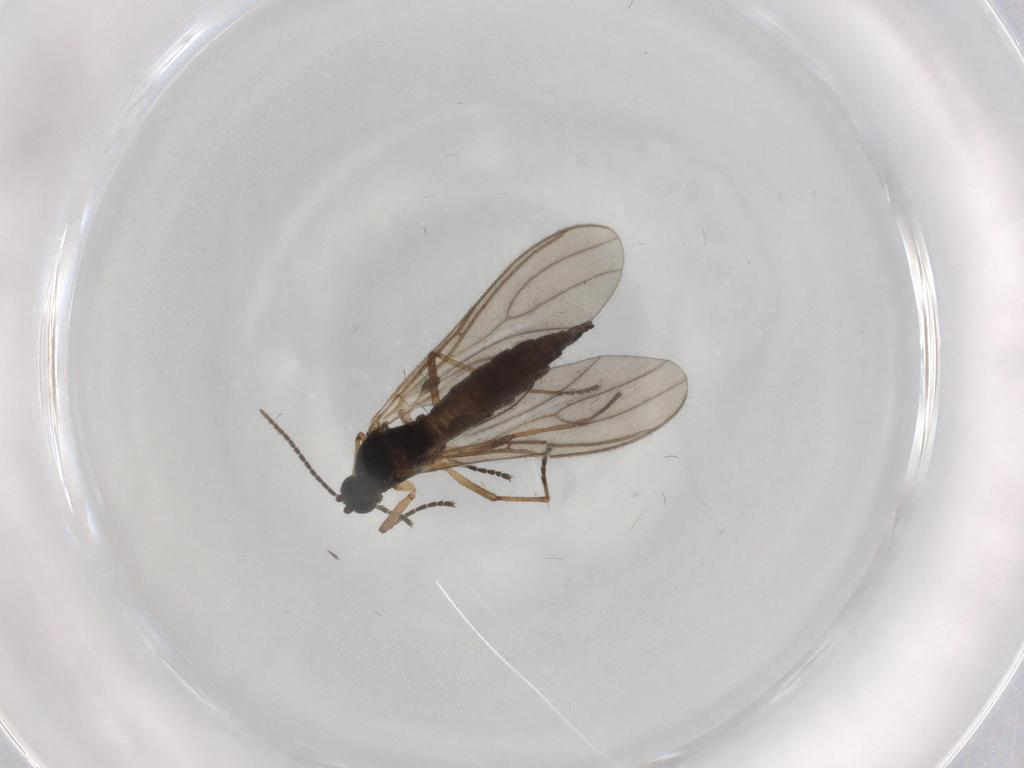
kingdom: Animalia
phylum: Arthropoda
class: Insecta
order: Diptera
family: Sciaridae
